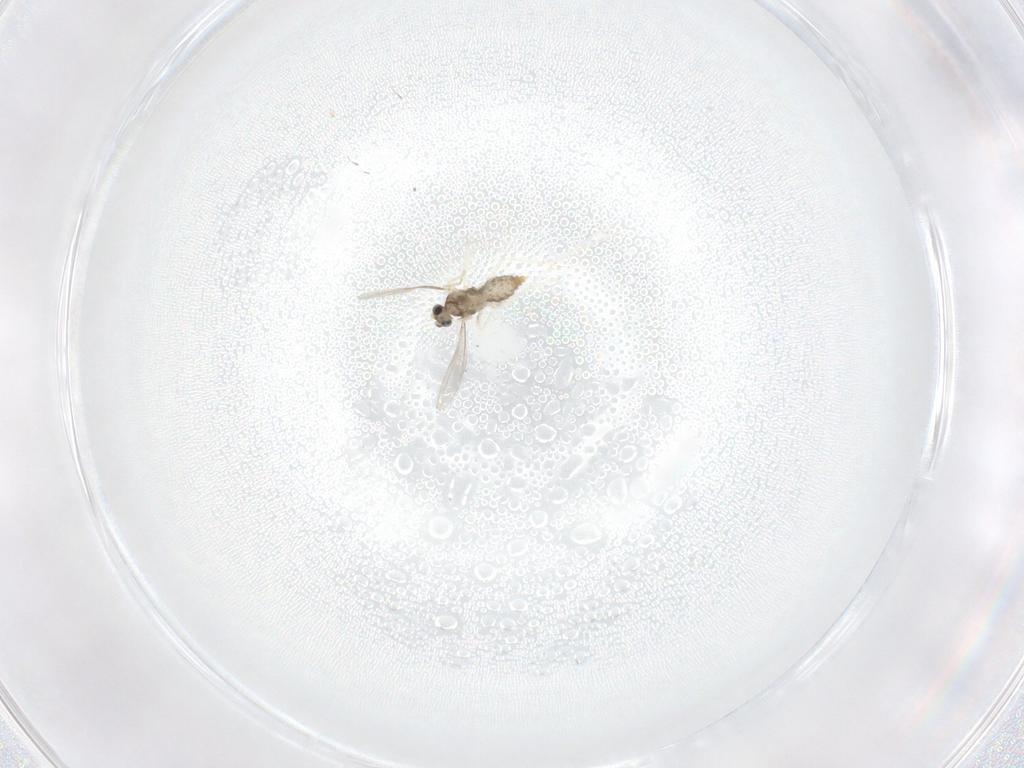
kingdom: Animalia
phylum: Arthropoda
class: Insecta
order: Diptera
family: Cecidomyiidae
